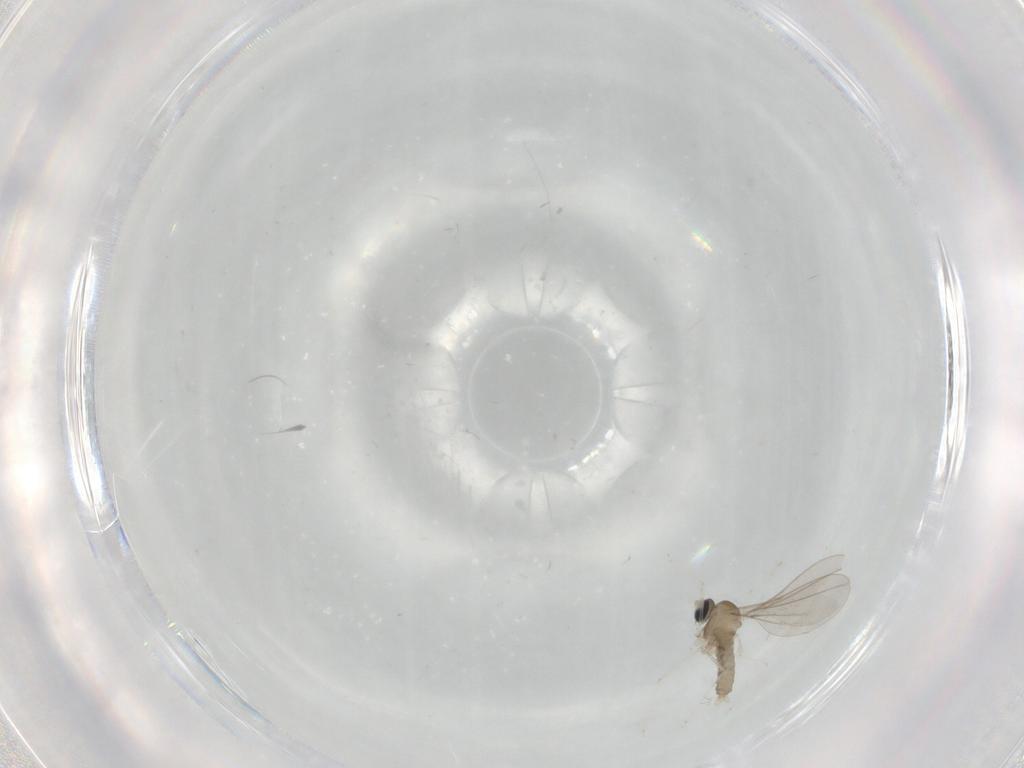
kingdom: Animalia
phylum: Arthropoda
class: Insecta
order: Diptera
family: Cecidomyiidae
